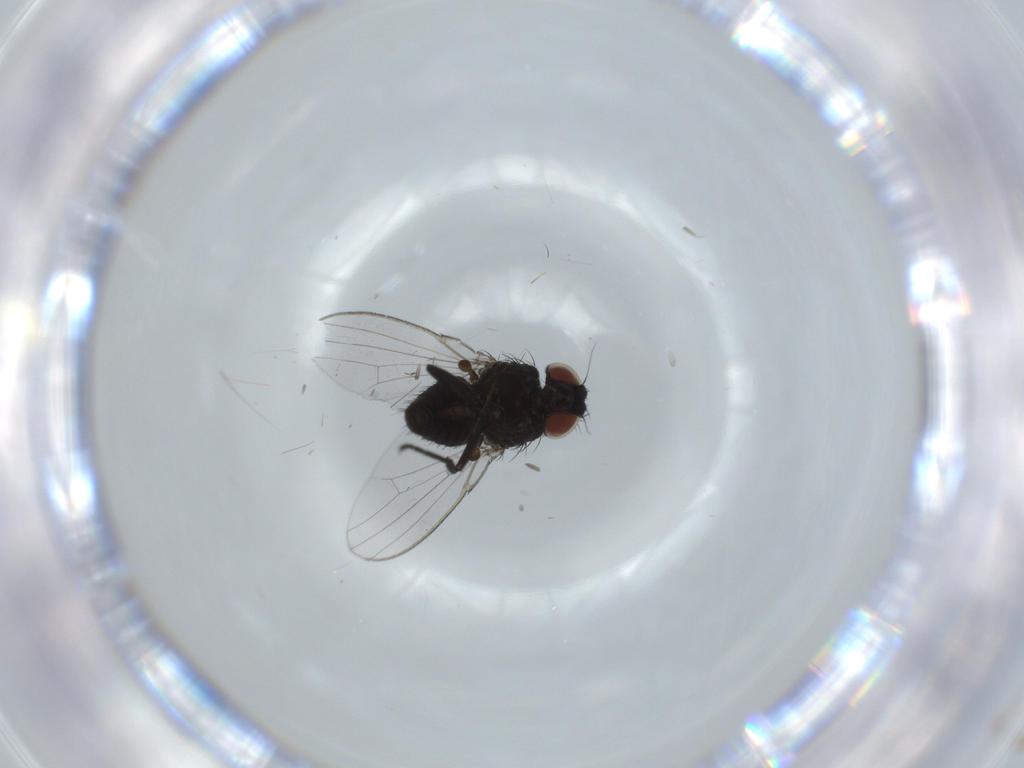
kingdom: Animalia
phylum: Arthropoda
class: Insecta
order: Diptera
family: Milichiidae
